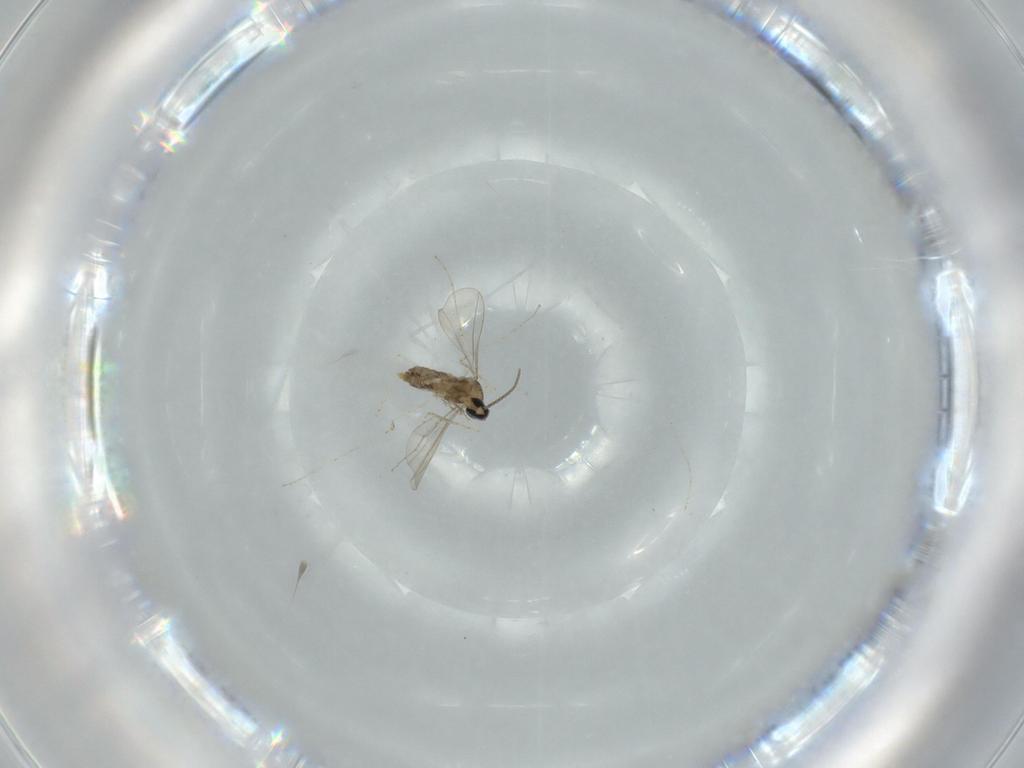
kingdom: Animalia
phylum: Arthropoda
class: Insecta
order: Diptera
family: Cecidomyiidae
